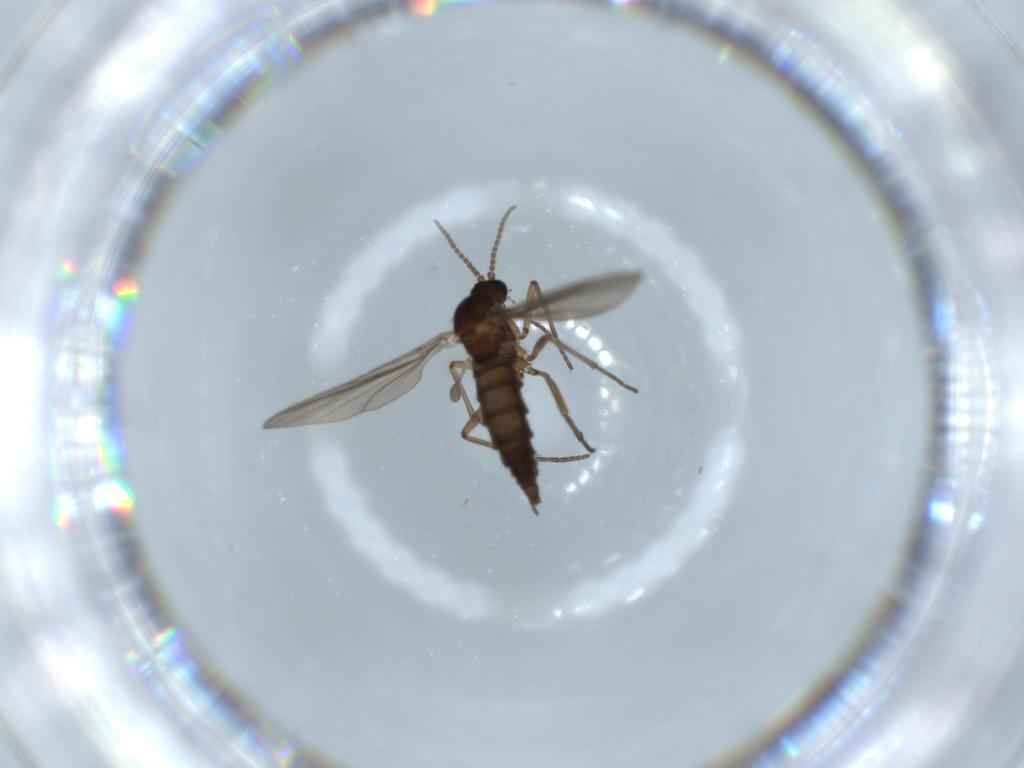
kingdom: Animalia
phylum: Arthropoda
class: Insecta
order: Diptera
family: Sciaridae
